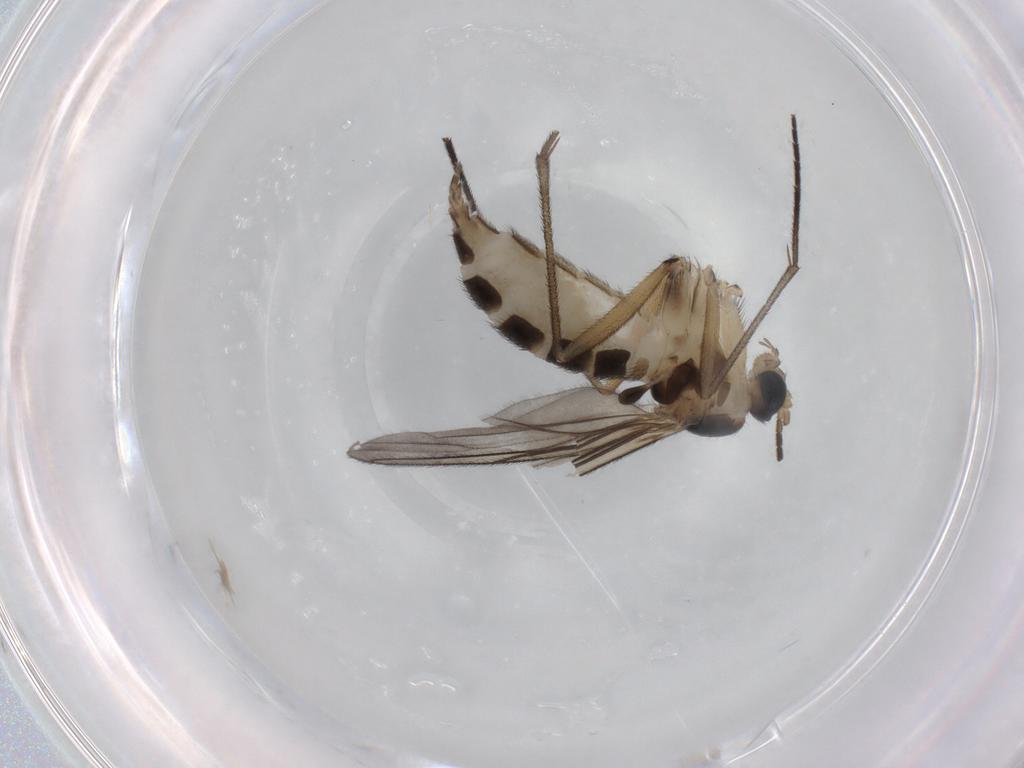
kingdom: Animalia
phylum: Arthropoda
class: Insecta
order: Diptera
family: Sciaridae
